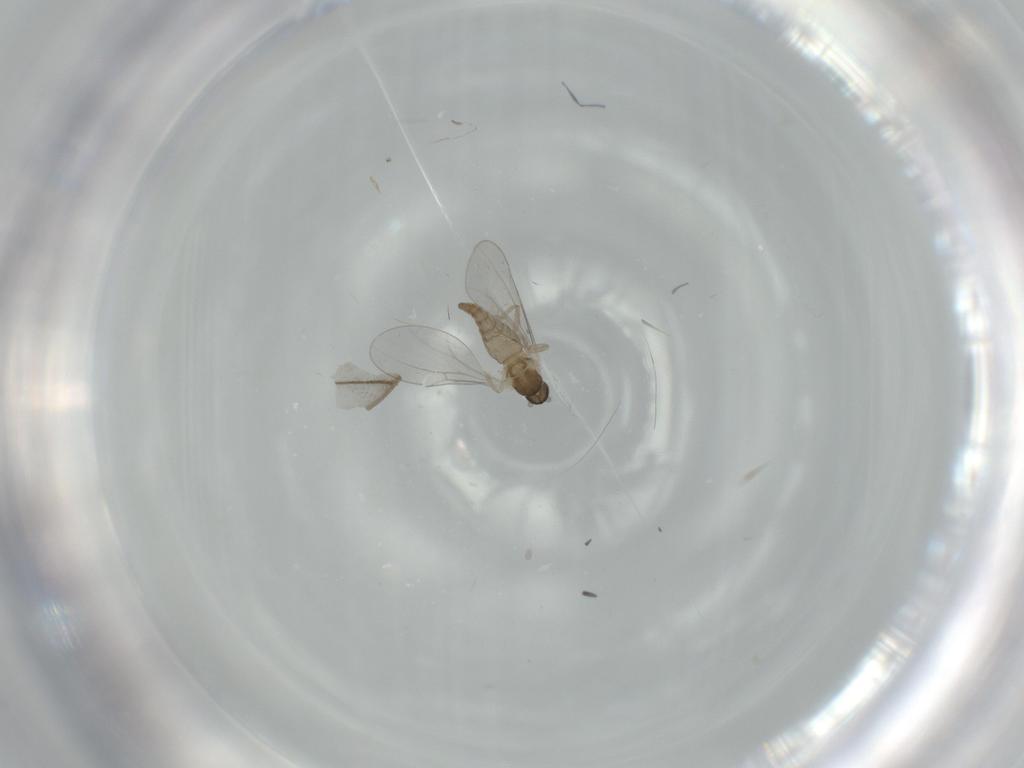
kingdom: Animalia
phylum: Arthropoda
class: Insecta
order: Diptera
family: Cecidomyiidae
